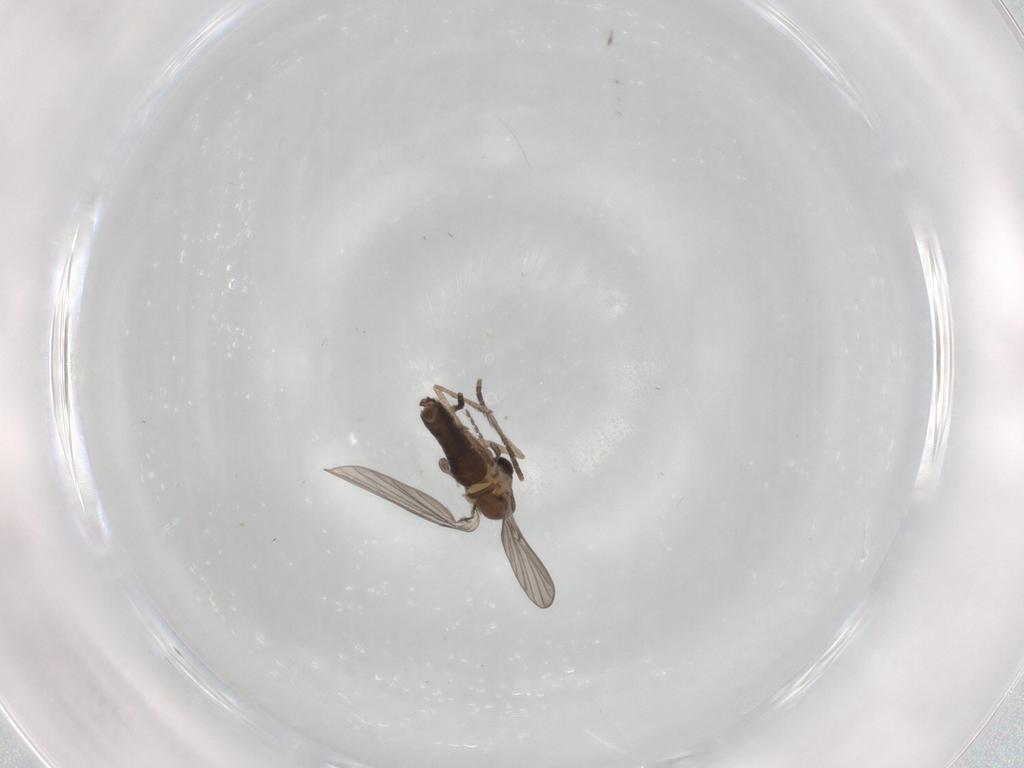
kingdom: Animalia
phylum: Arthropoda
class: Insecta
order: Diptera
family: Psychodidae
